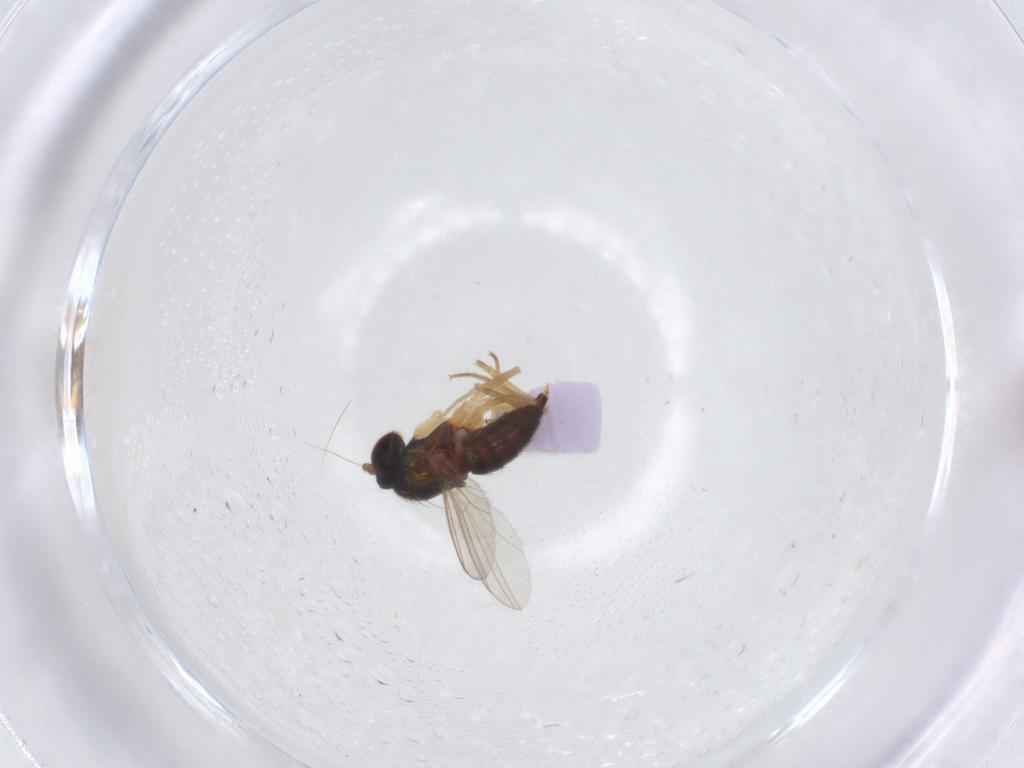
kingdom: Animalia
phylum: Arthropoda
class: Insecta
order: Diptera
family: Dolichopodidae
